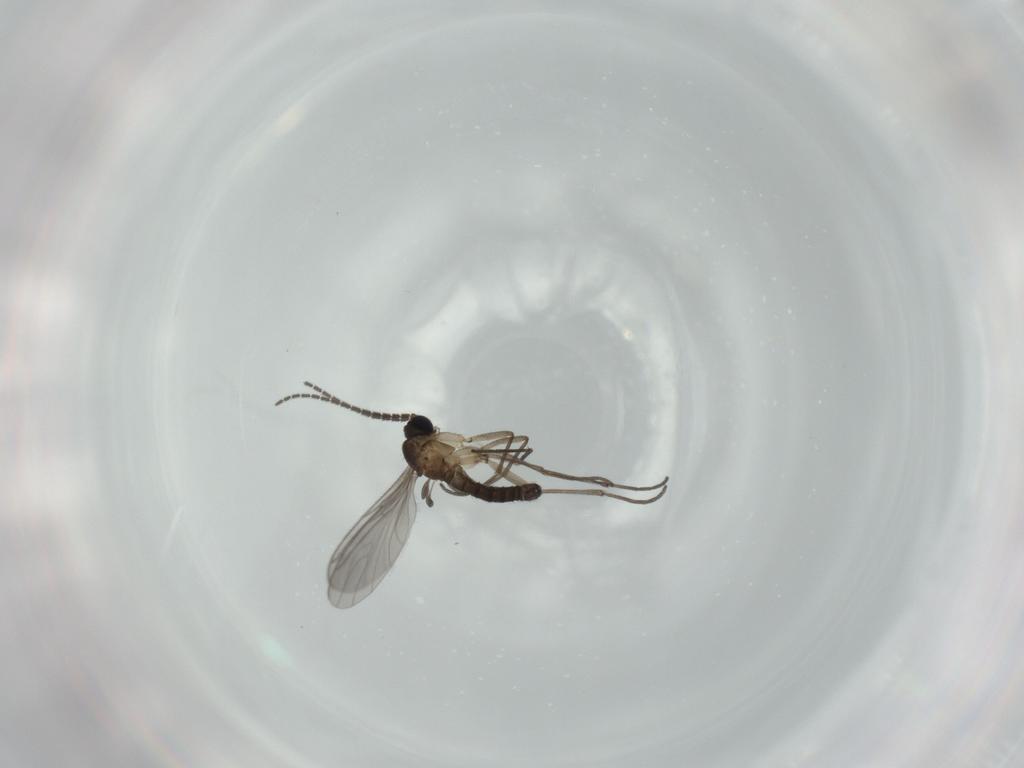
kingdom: Animalia
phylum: Arthropoda
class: Insecta
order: Diptera
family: Sciaridae
